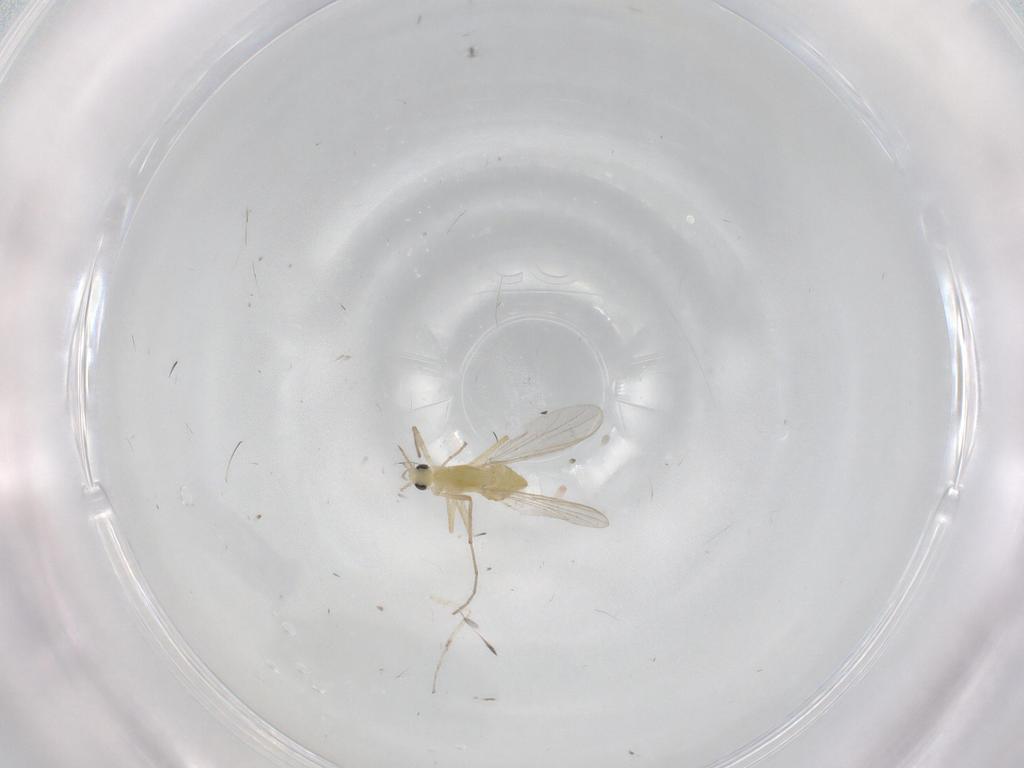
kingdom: Animalia
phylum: Arthropoda
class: Insecta
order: Diptera
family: Chironomidae
